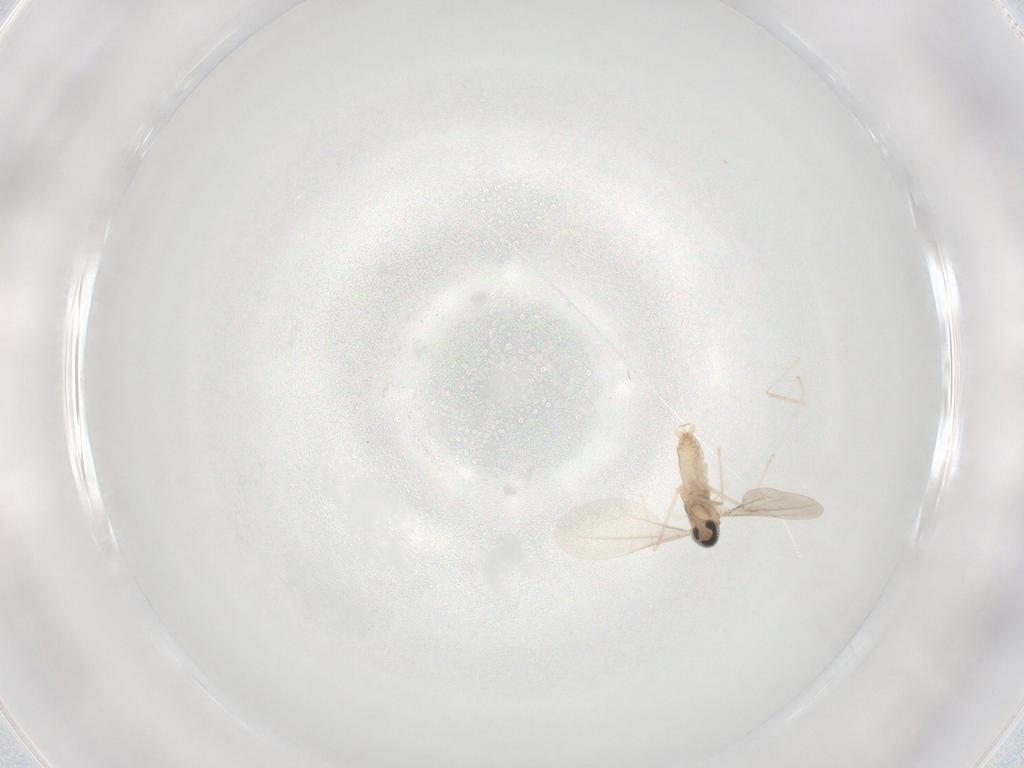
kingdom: Animalia
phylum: Arthropoda
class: Insecta
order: Diptera
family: Cecidomyiidae
